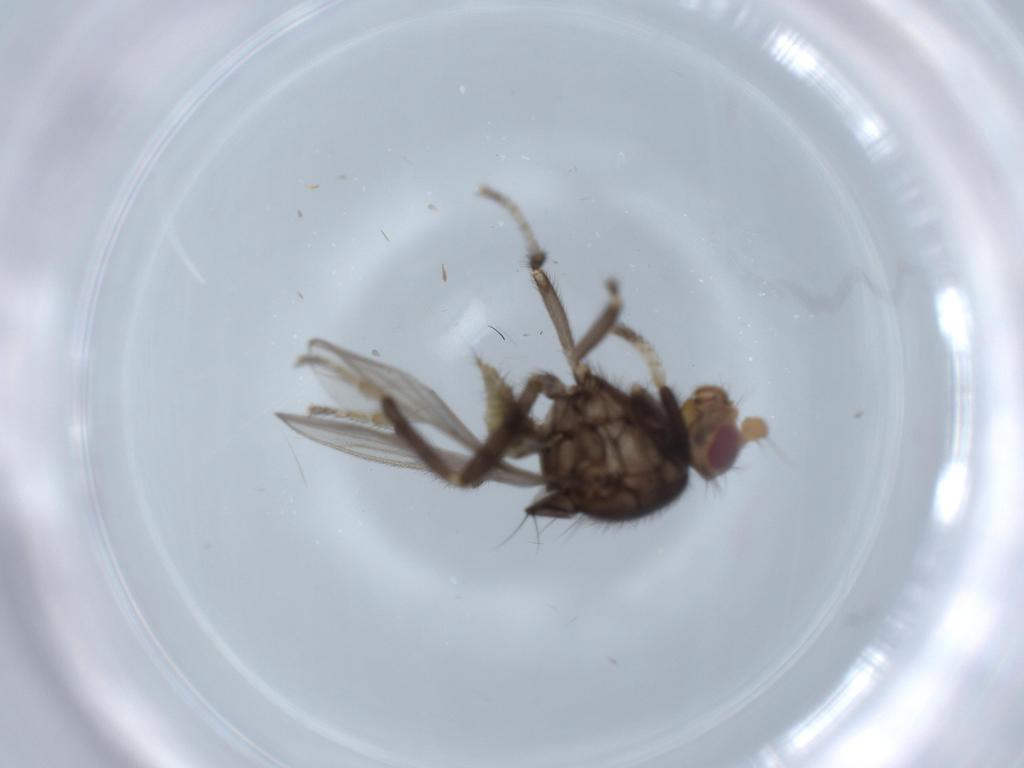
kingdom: Animalia
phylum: Arthropoda
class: Insecta
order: Diptera
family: Sphaeroceridae
